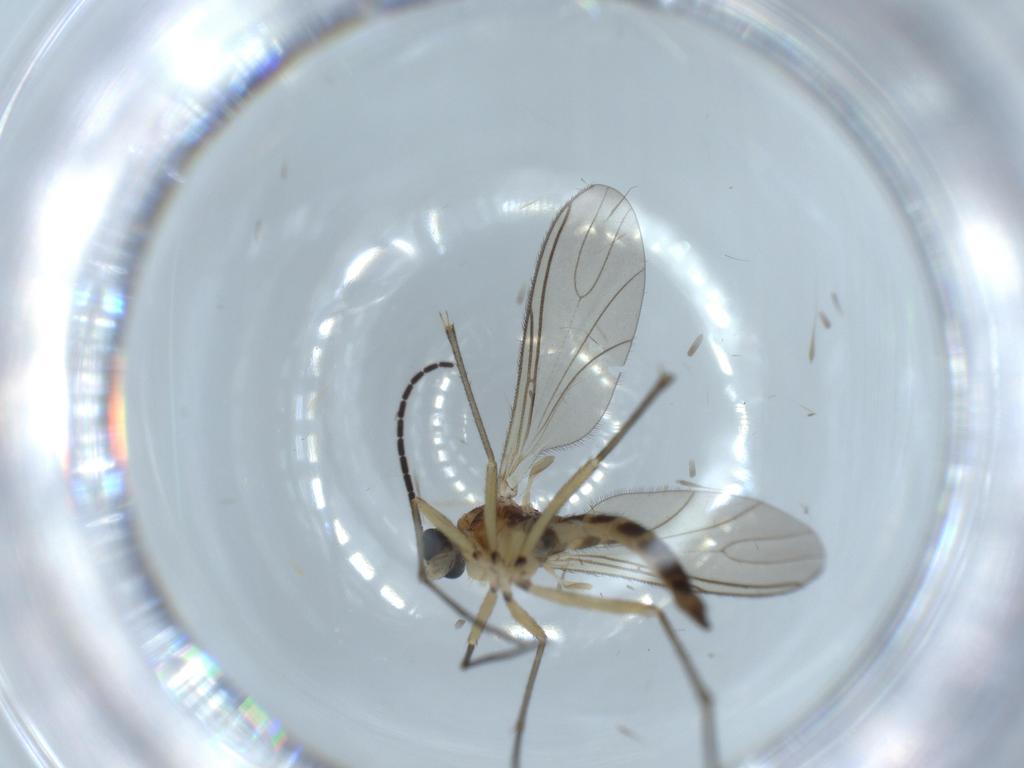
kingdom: Animalia
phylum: Arthropoda
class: Insecta
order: Diptera
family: Sciaridae
